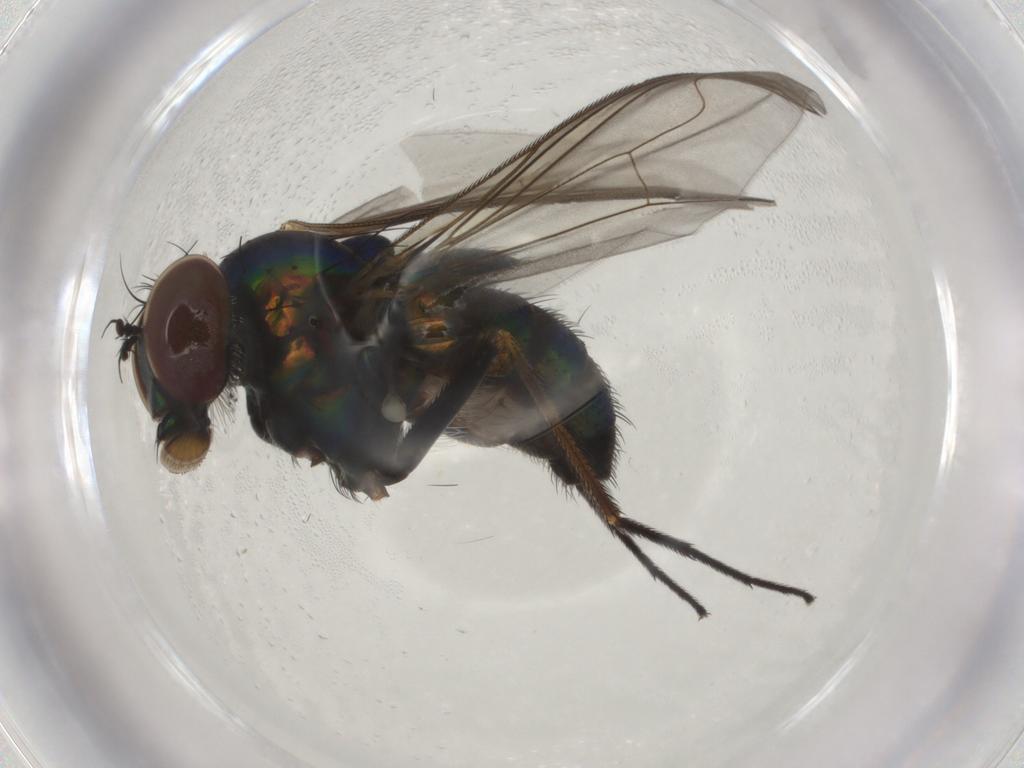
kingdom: Animalia
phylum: Arthropoda
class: Insecta
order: Diptera
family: Dolichopodidae
